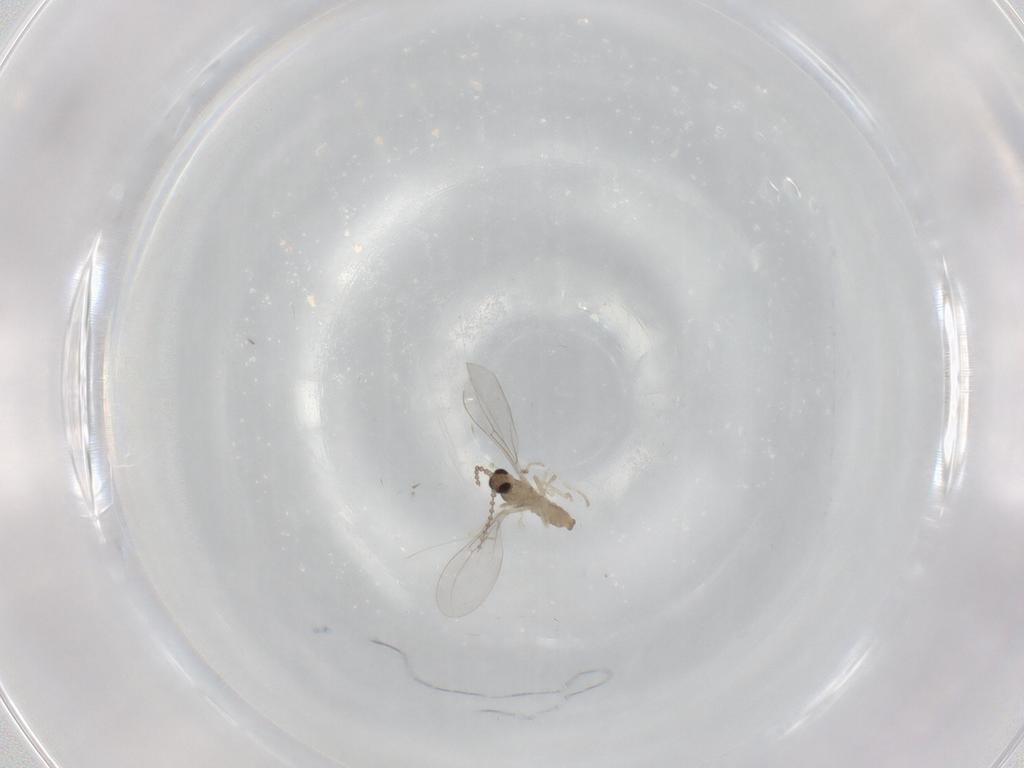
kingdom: Animalia
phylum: Arthropoda
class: Insecta
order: Diptera
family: Cecidomyiidae
